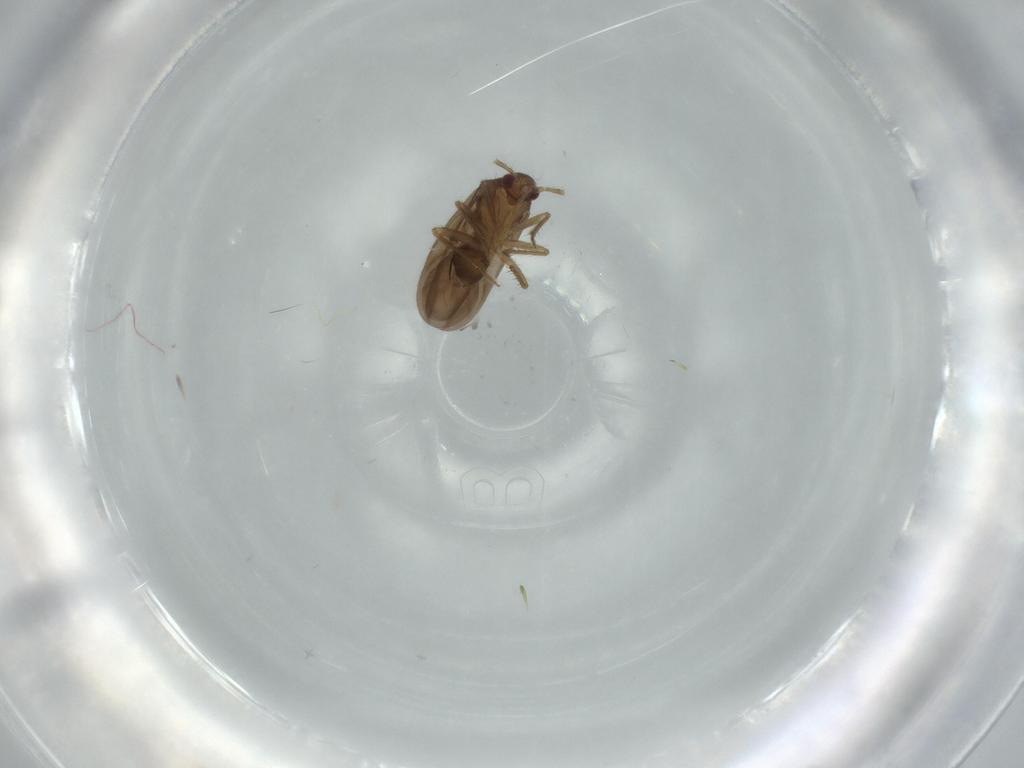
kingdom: Animalia
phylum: Arthropoda
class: Insecta
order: Hemiptera
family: Ceratocombidae
